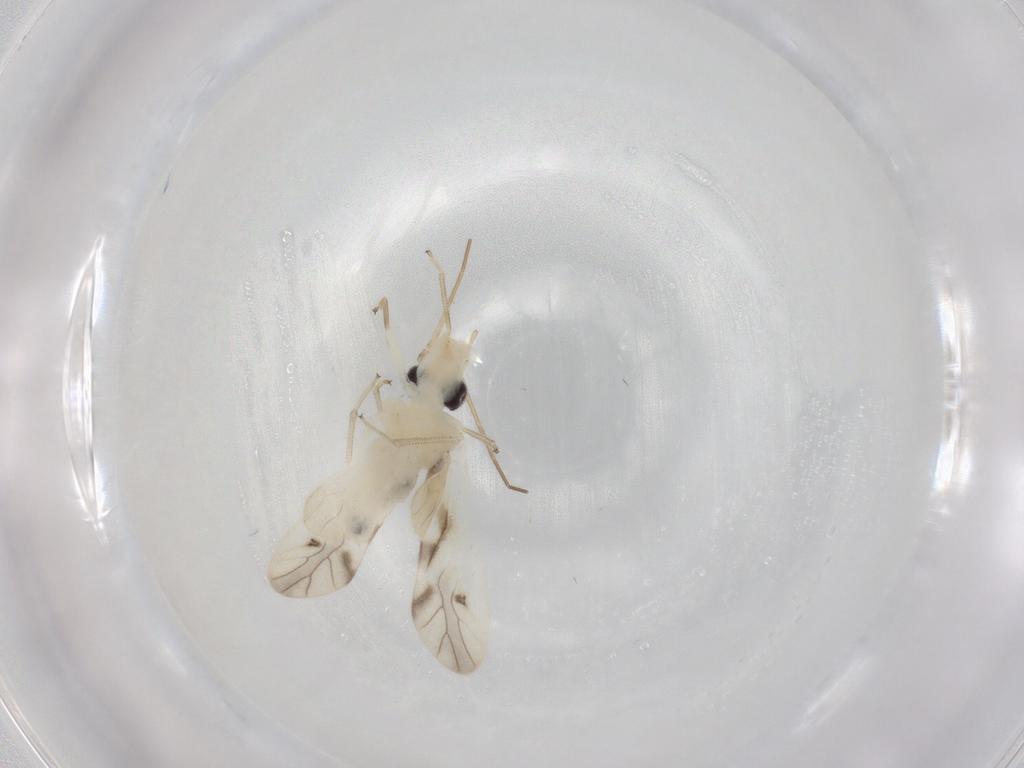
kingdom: Animalia
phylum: Arthropoda
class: Insecta
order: Psocodea
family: Caeciliusidae
